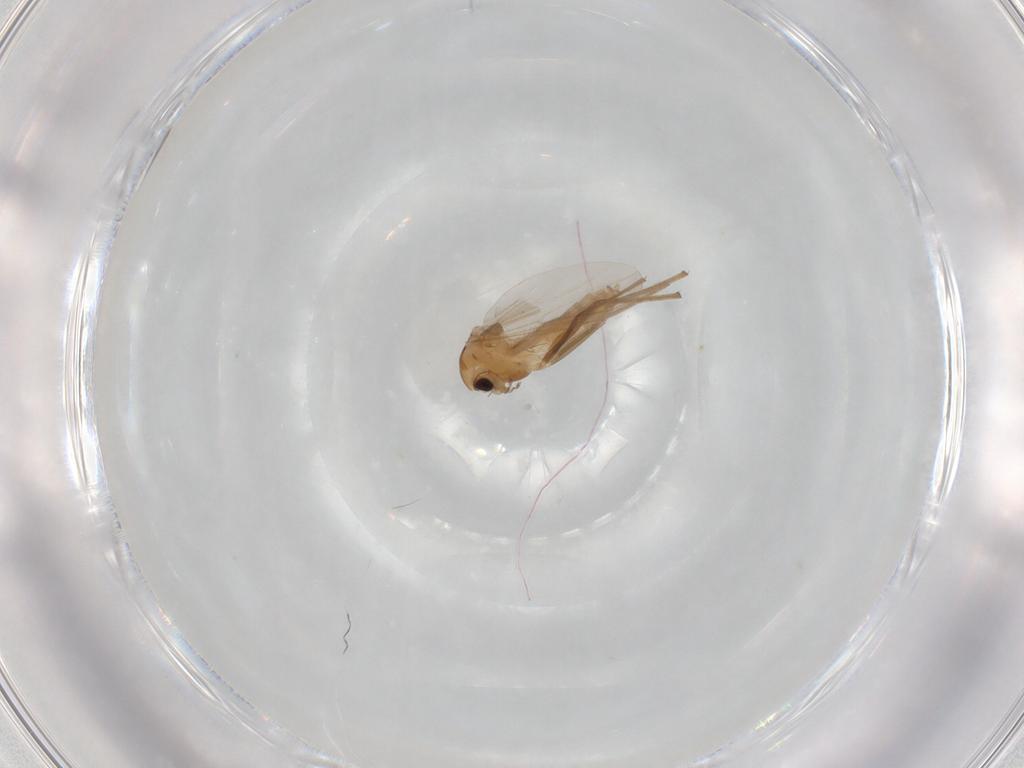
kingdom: Animalia
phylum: Arthropoda
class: Insecta
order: Diptera
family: Chironomidae
